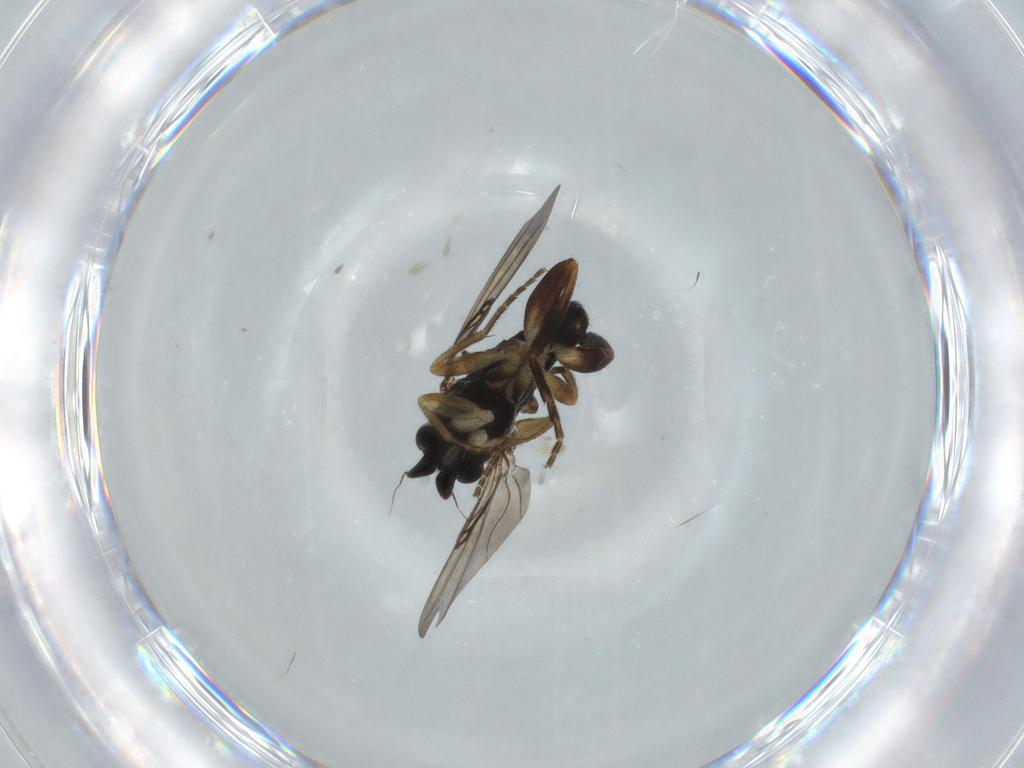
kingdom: Animalia
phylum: Arthropoda
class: Insecta
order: Diptera
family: Phoridae
